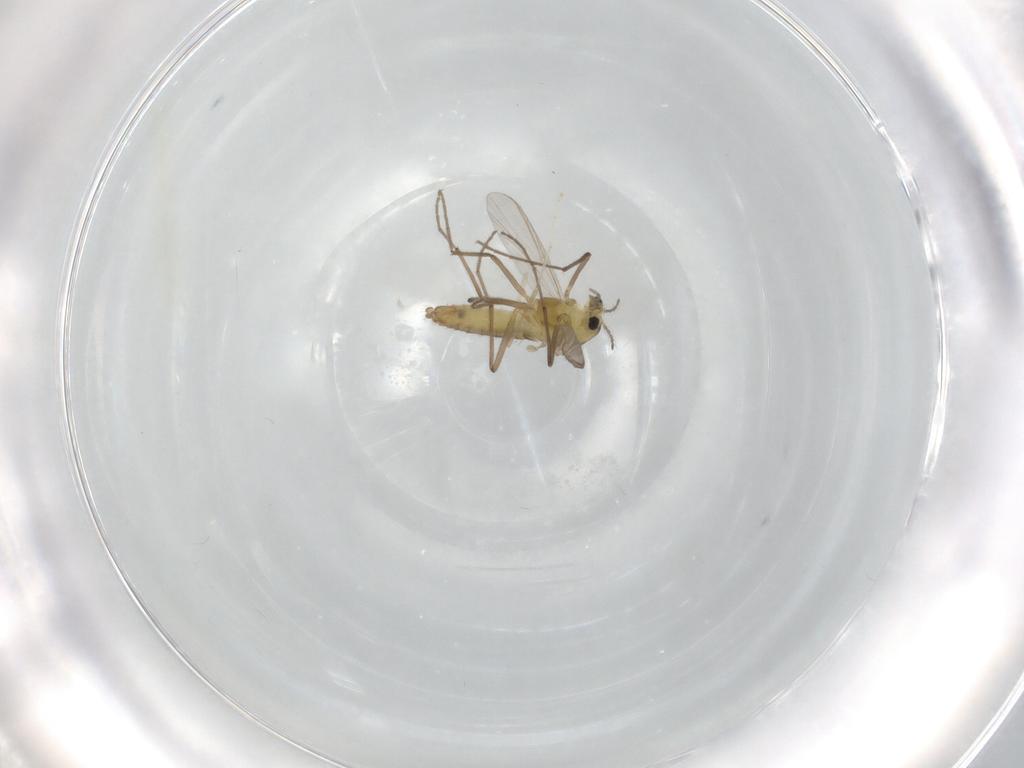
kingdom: Animalia
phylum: Arthropoda
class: Insecta
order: Diptera
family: Chironomidae
